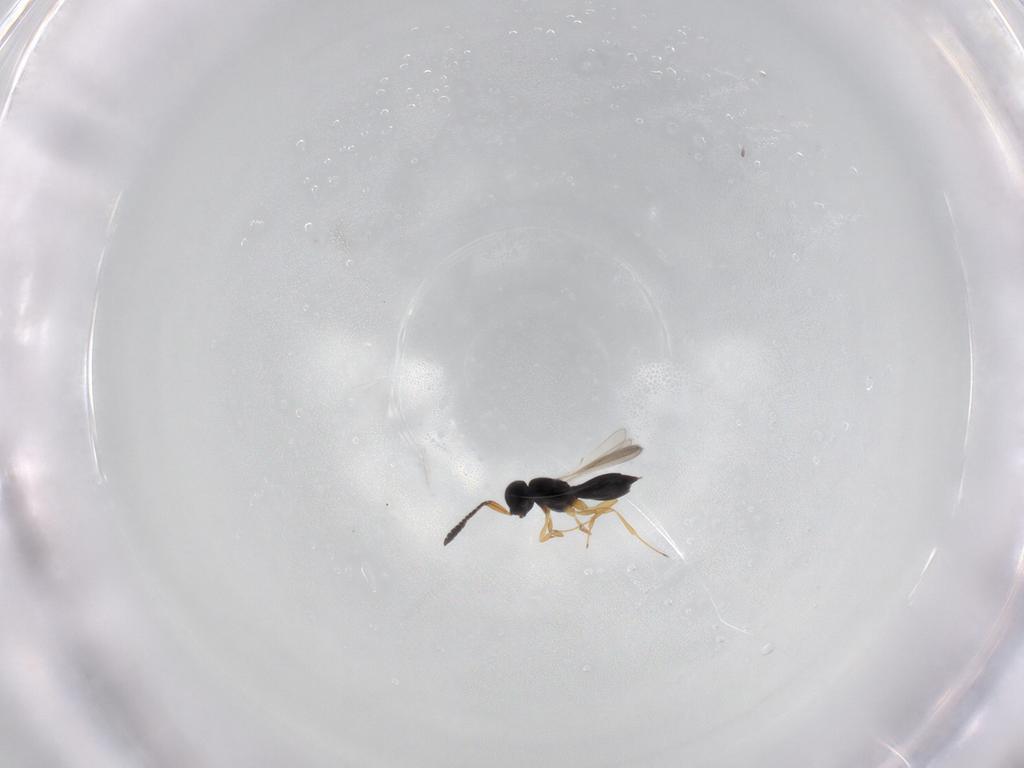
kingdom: Animalia
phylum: Arthropoda
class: Insecta
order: Hymenoptera
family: Scelionidae
